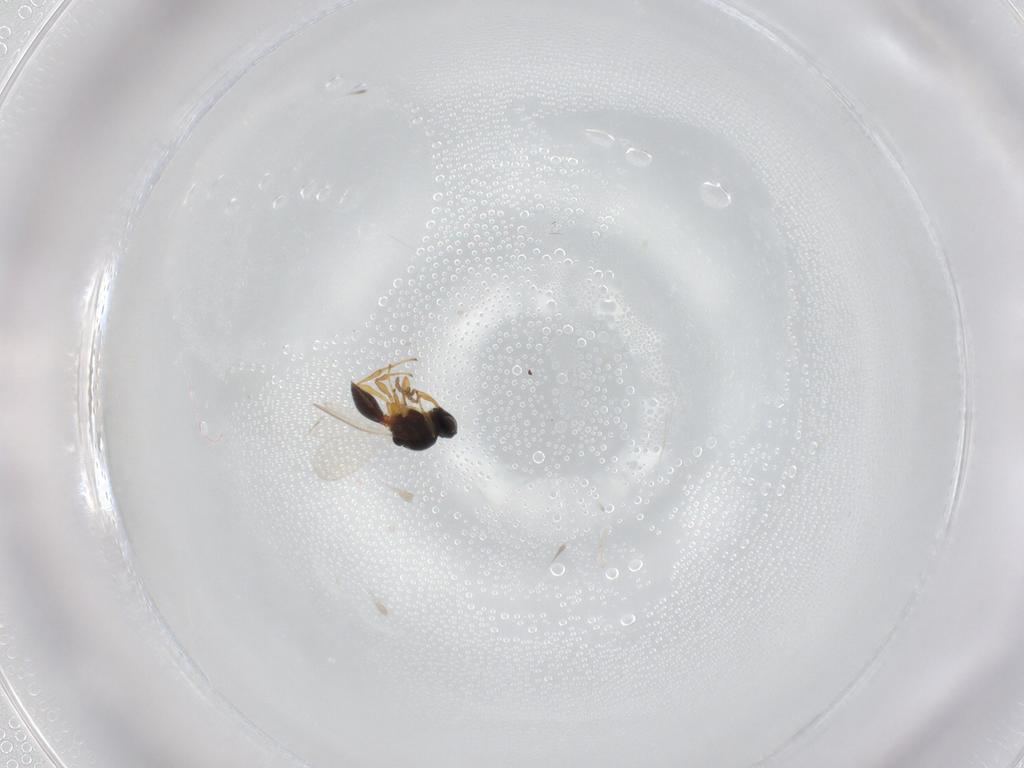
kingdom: Animalia
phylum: Arthropoda
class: Insecta
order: Hymenoptera
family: Platygastridae
